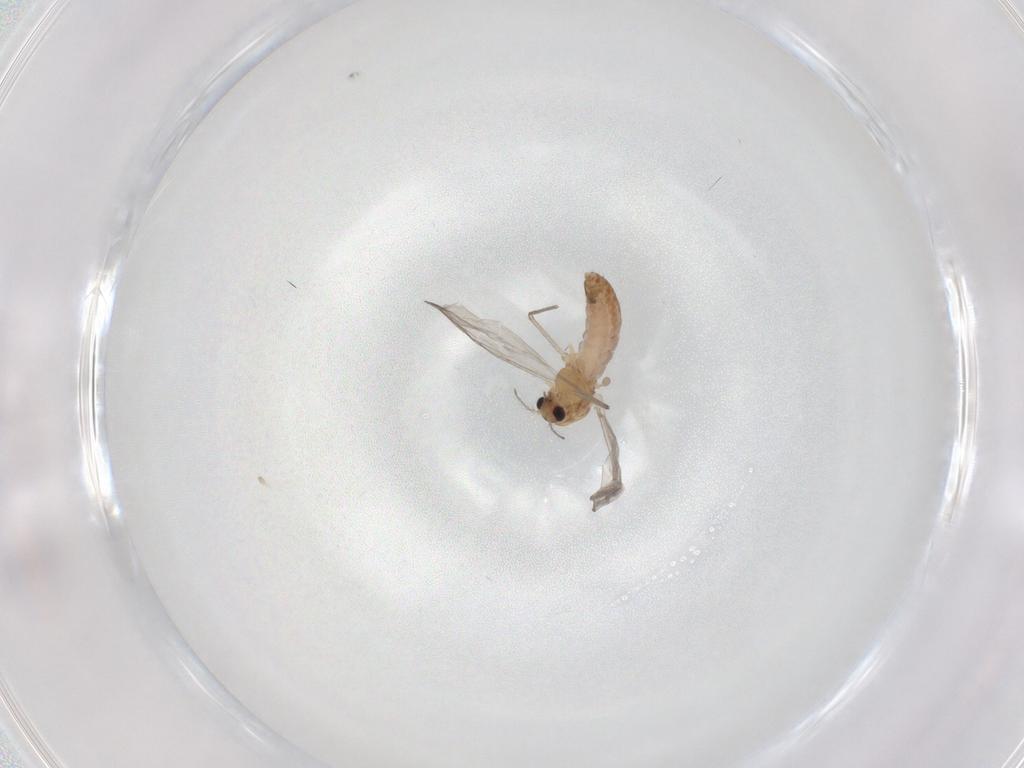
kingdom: Animalia
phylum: Arthropoda
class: Insecta
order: Diptera
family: Chironomidae
